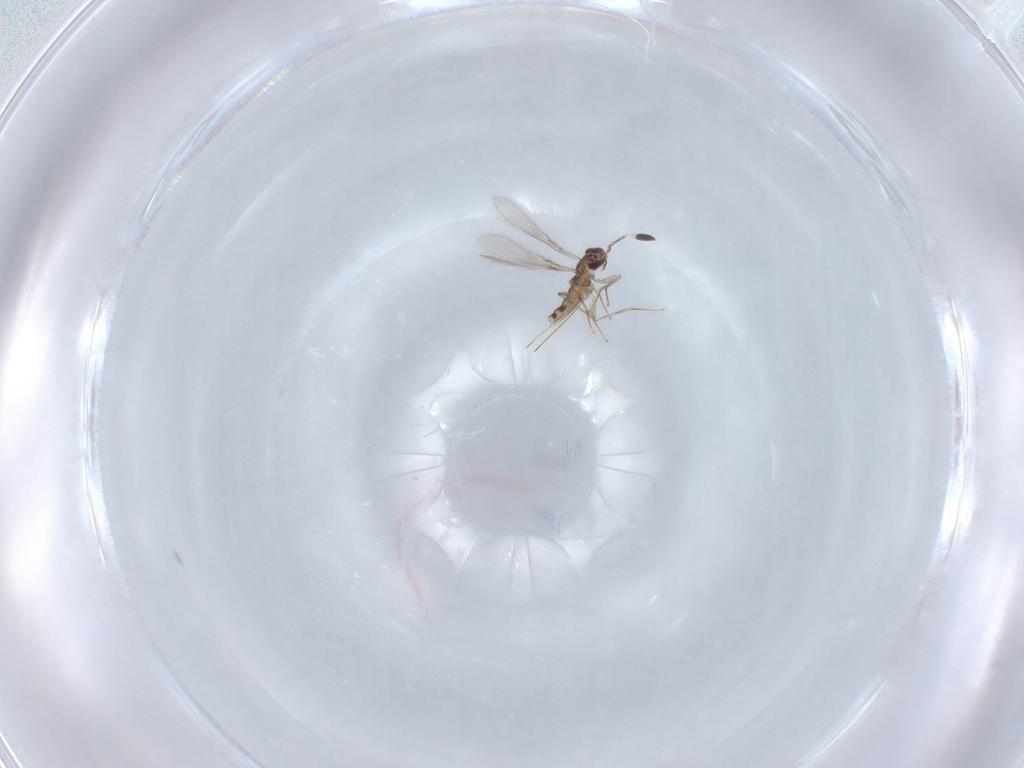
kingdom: Animalia
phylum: Arthropoda
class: Insecta
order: Hymenoptera
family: Mymaridae
